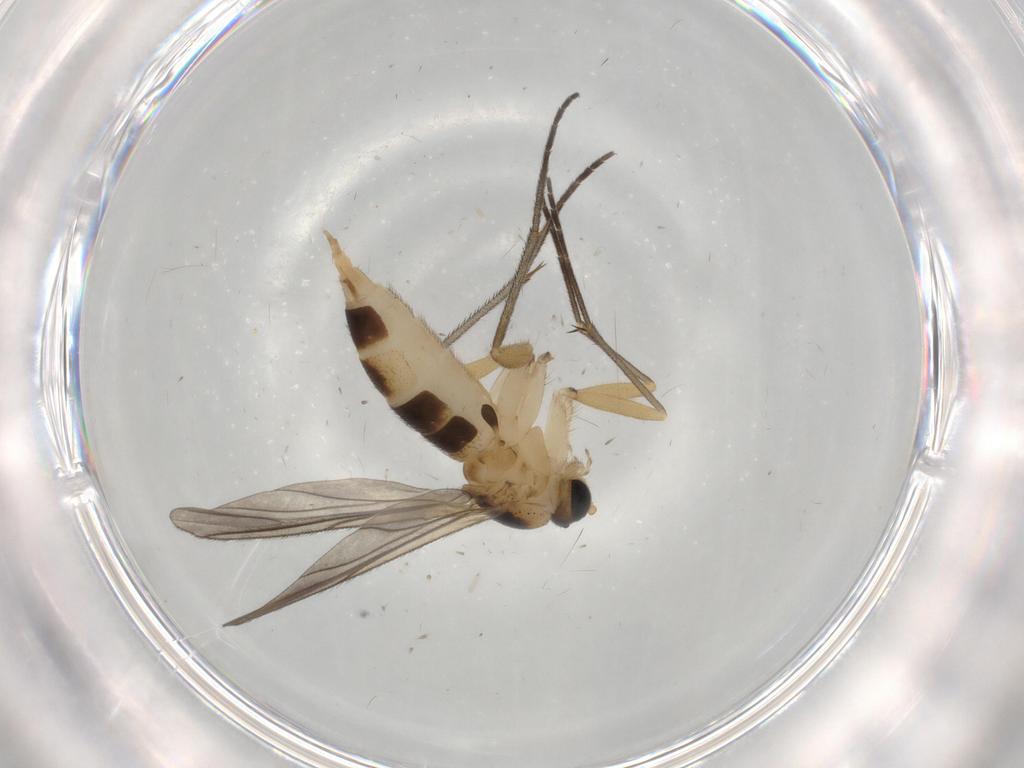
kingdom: Animalia
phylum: Arthropoda
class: Insecta
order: Diptera
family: Sciaridae
